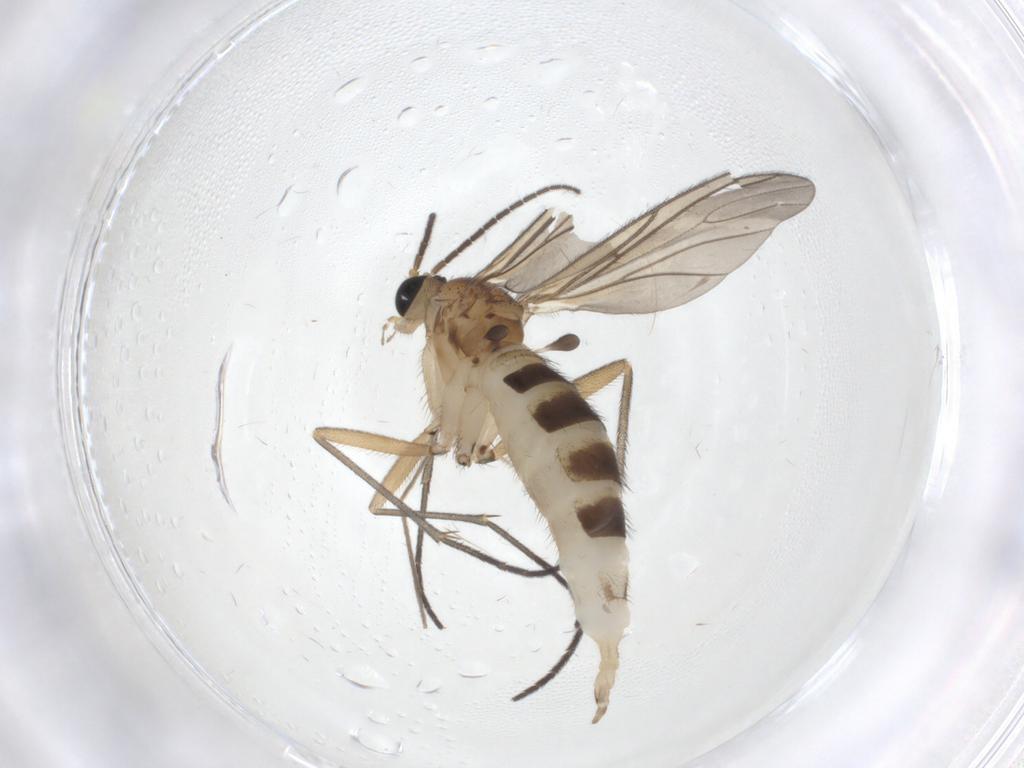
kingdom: Animalia
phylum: Arthropoda
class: Insecta
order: Diptera
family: Sciaridae
